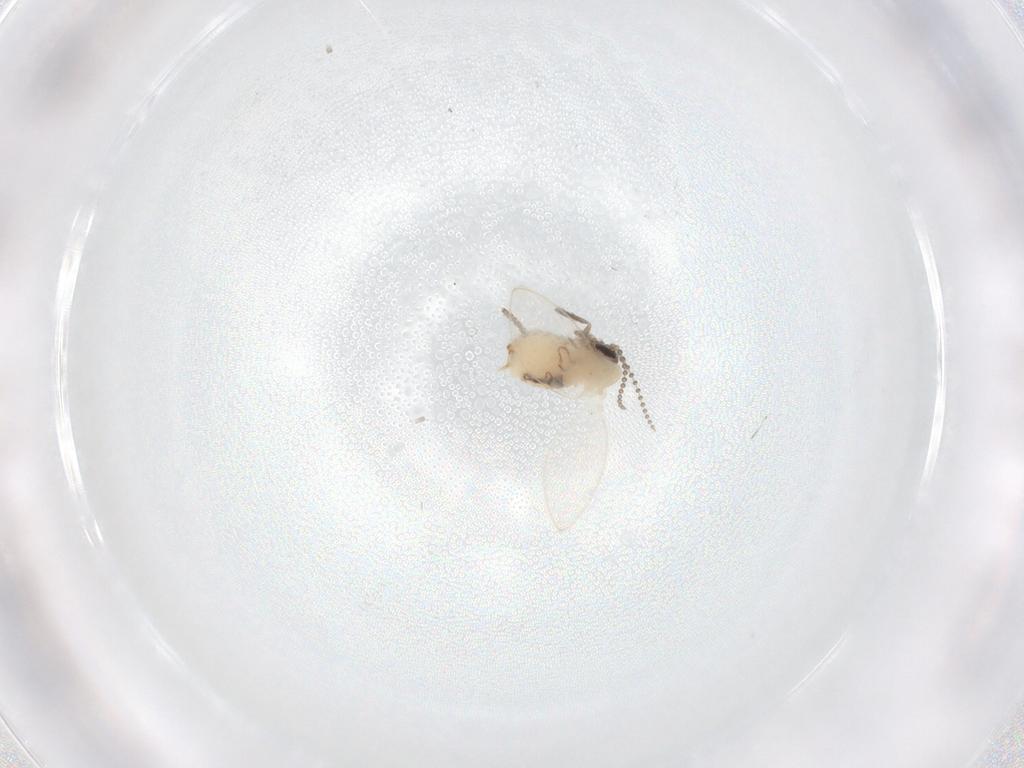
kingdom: Animalia
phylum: Arthropoda
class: Insecta
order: Diptera
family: Psychodidae
